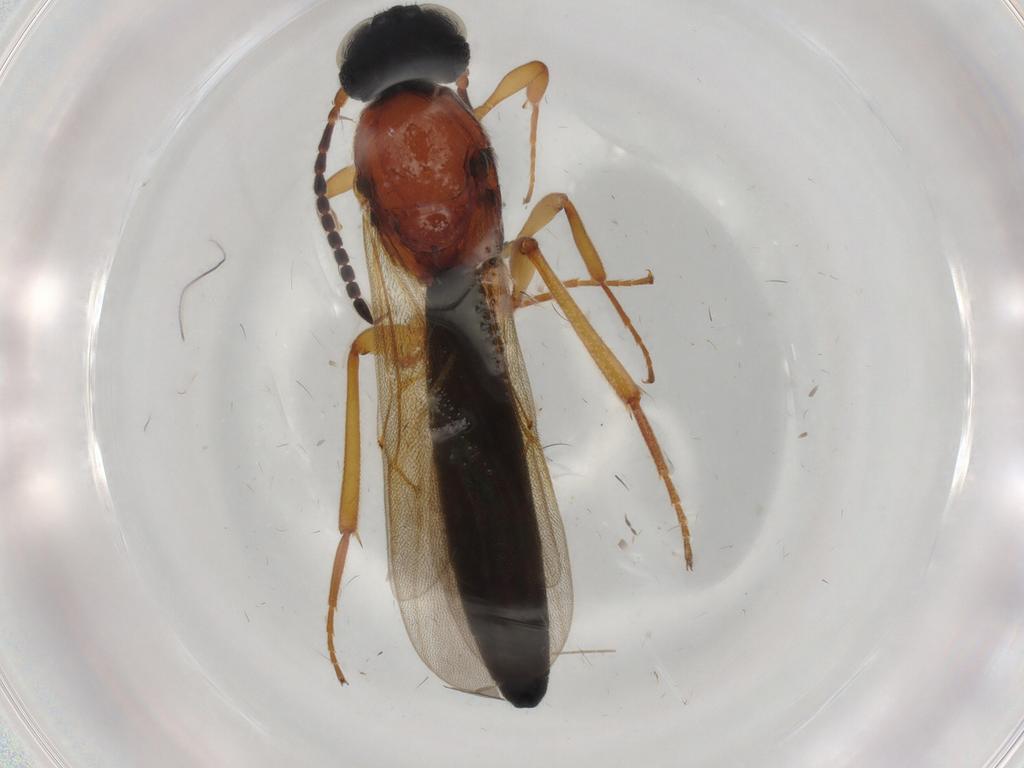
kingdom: Animalia
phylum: Arthropoda
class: Insecta
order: Hymenoptera
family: Scelionidae
